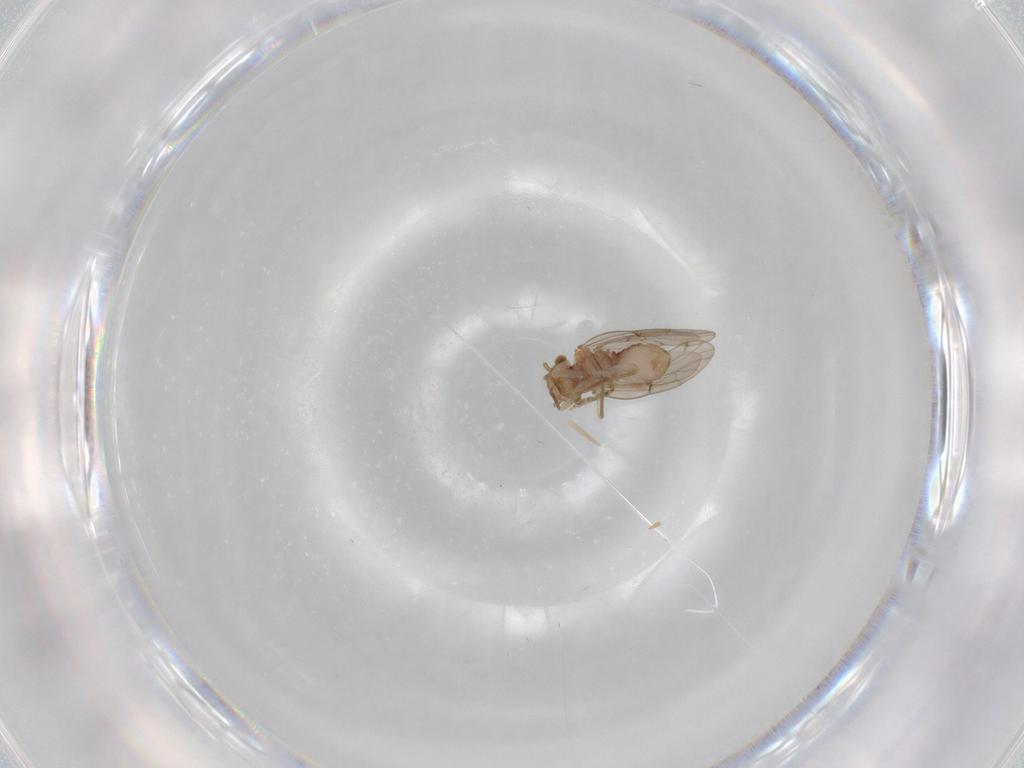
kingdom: Animalia
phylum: Arthropoda
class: Insecta
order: Psocodea
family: Ectopsocidae
